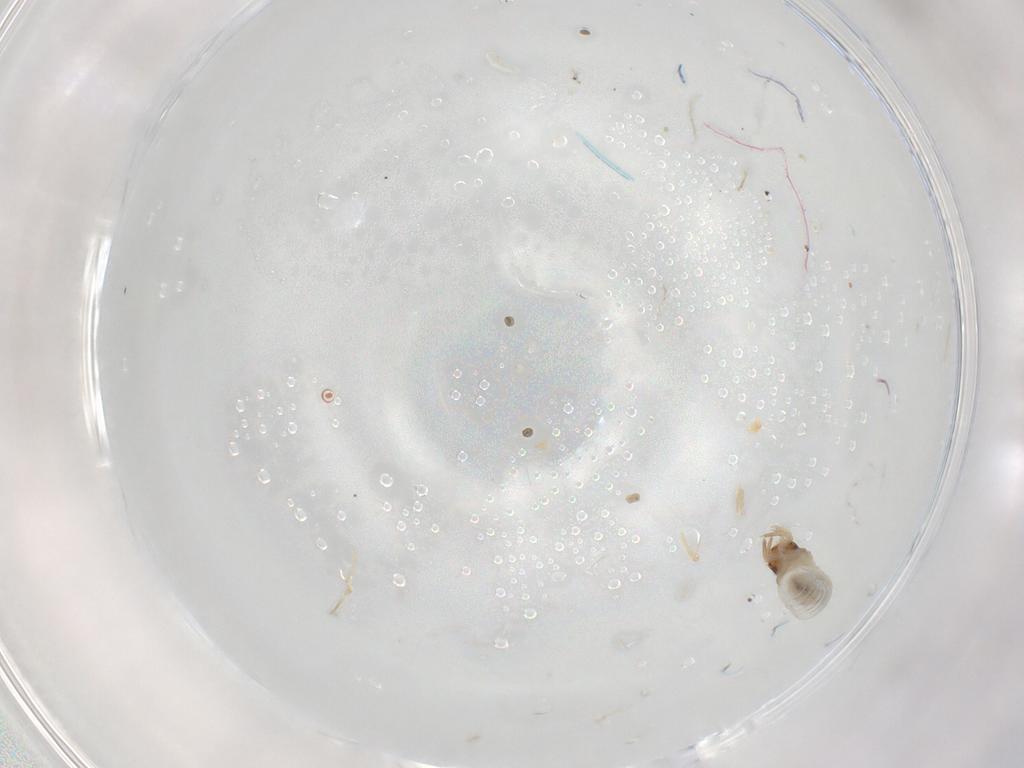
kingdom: Animalia
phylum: Arthropoda
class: Insecta
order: Coleoptera
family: Chrysomelidae
